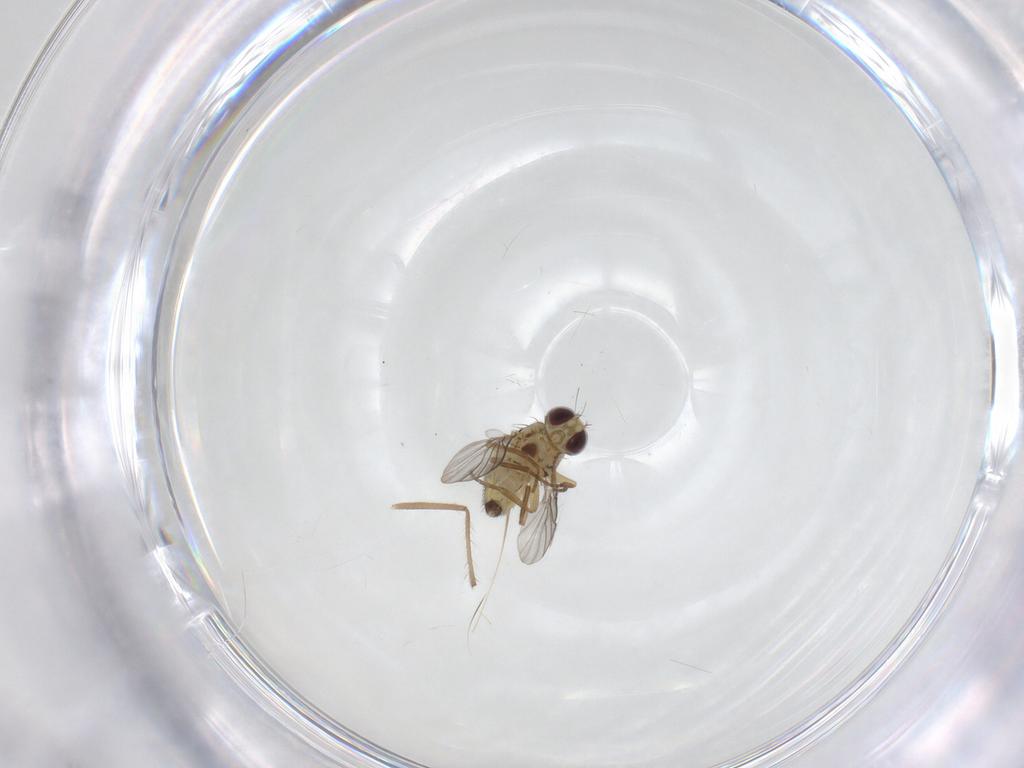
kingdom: Animalia
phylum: Arthropoda
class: Insecta
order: Diptera
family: Agromyzidae
